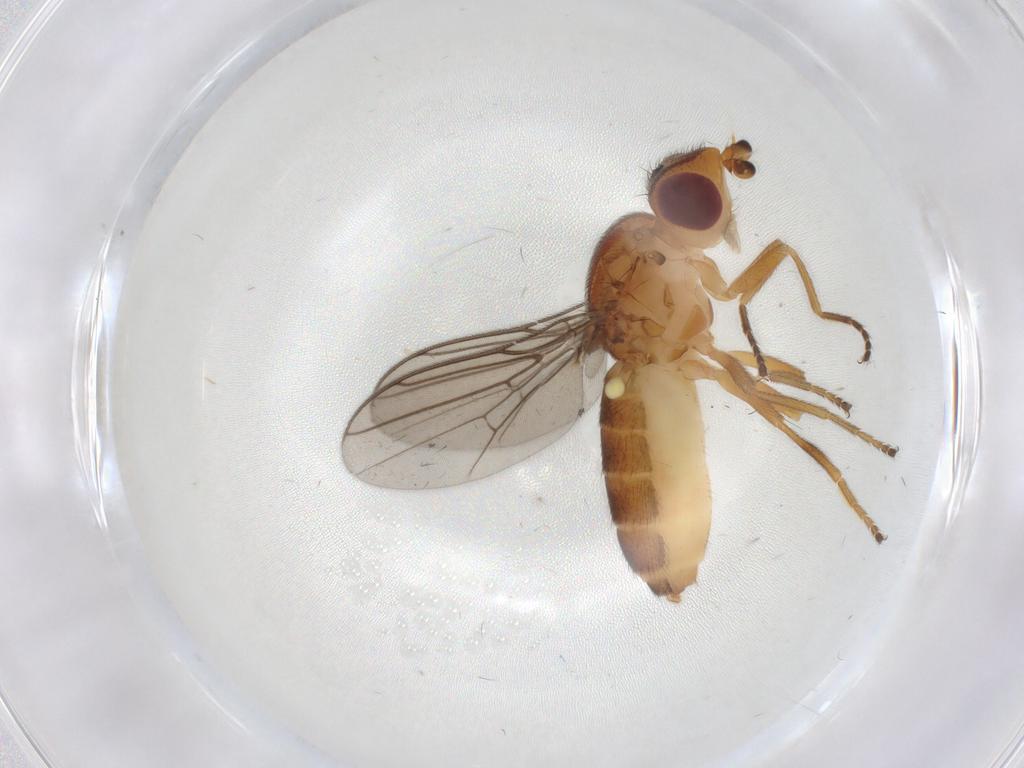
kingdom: Animalia
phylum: Arthropoda
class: Insecta
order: Diptera
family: Chloropidae
